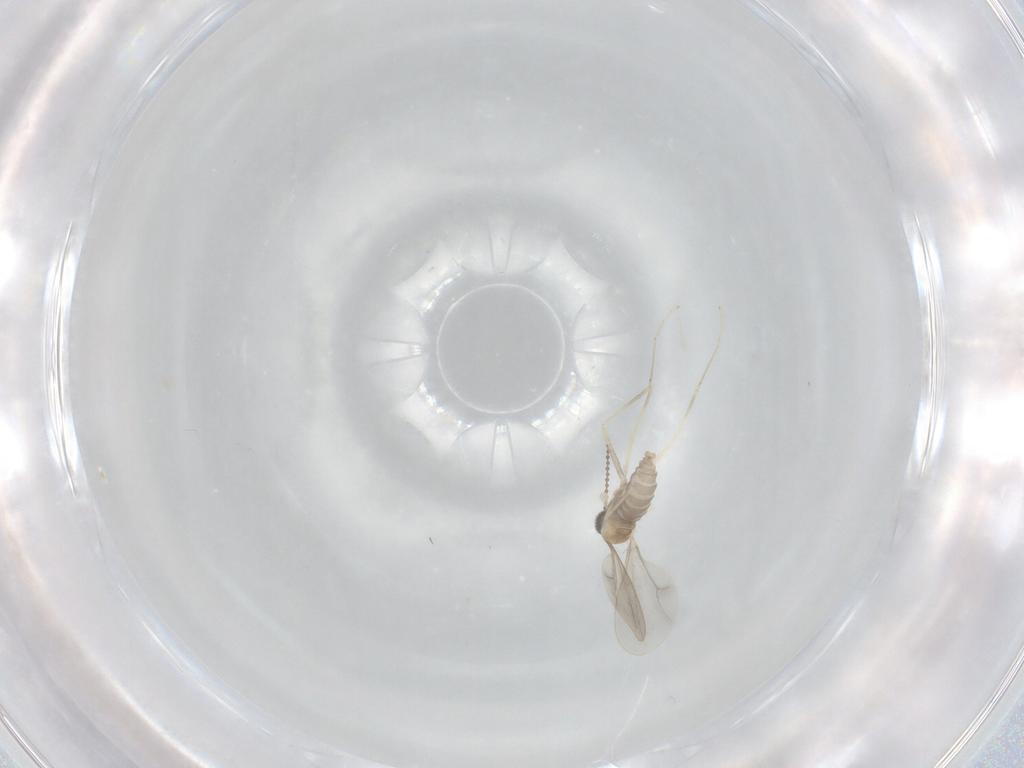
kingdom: Animalia
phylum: Arthropoda
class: Insecta
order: Diptera
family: Cecidomyiidae
